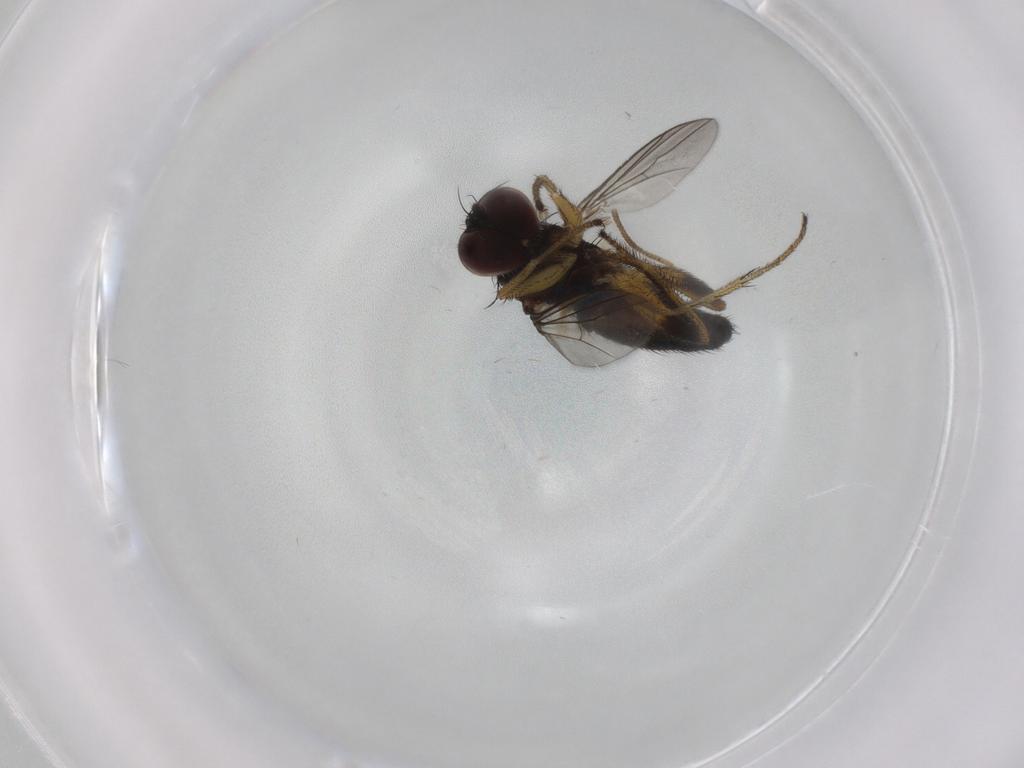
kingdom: Animalia
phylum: Arthropoda
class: Insecta
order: Diptera
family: Dolichopodidae
